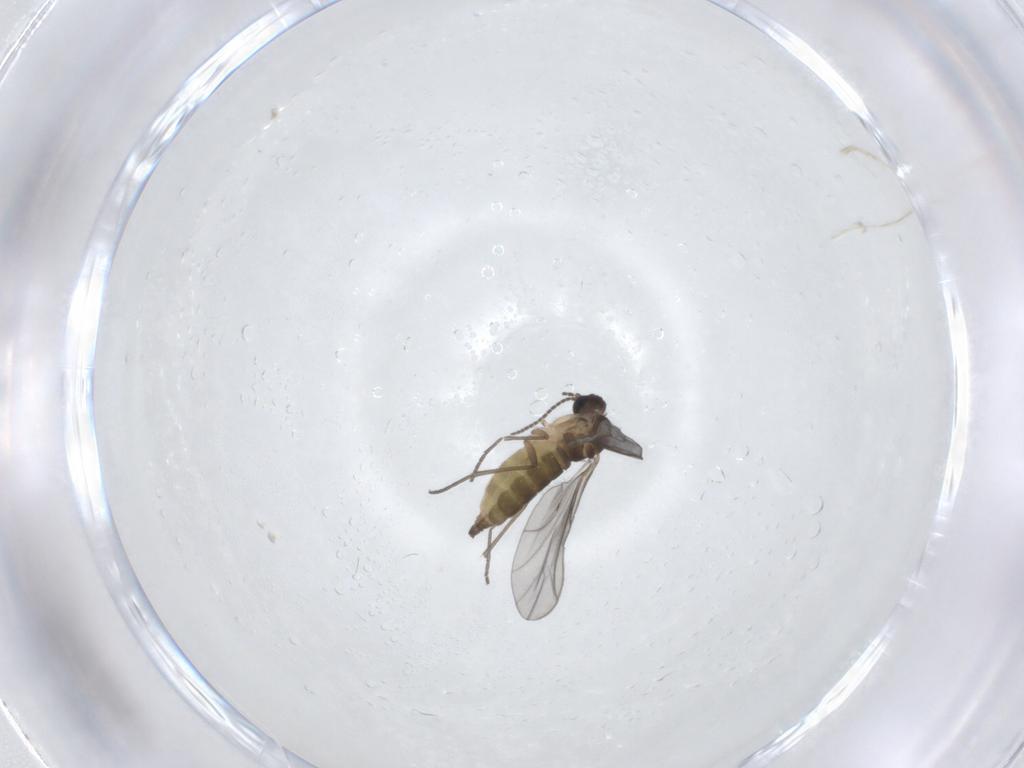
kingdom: Animalia
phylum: Arthropoda
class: Insecta
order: Diptera
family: Sciaridae
